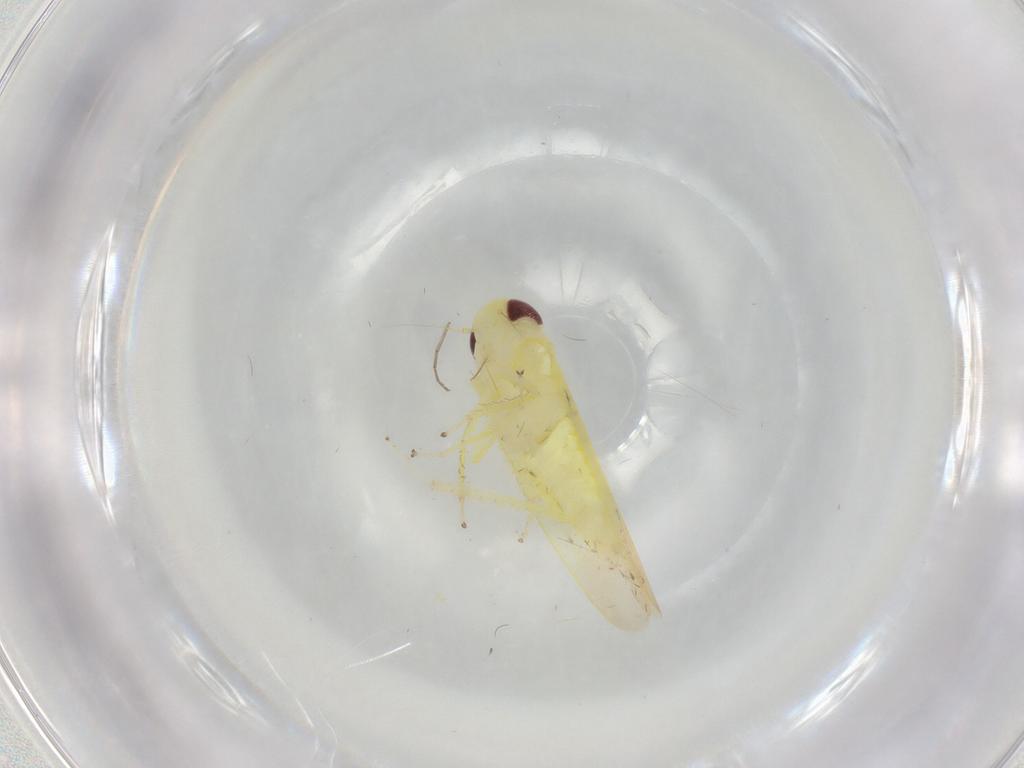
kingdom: Animalia
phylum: Arthropoda
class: Insecta
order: Hemiptera
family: Cicadellidae
